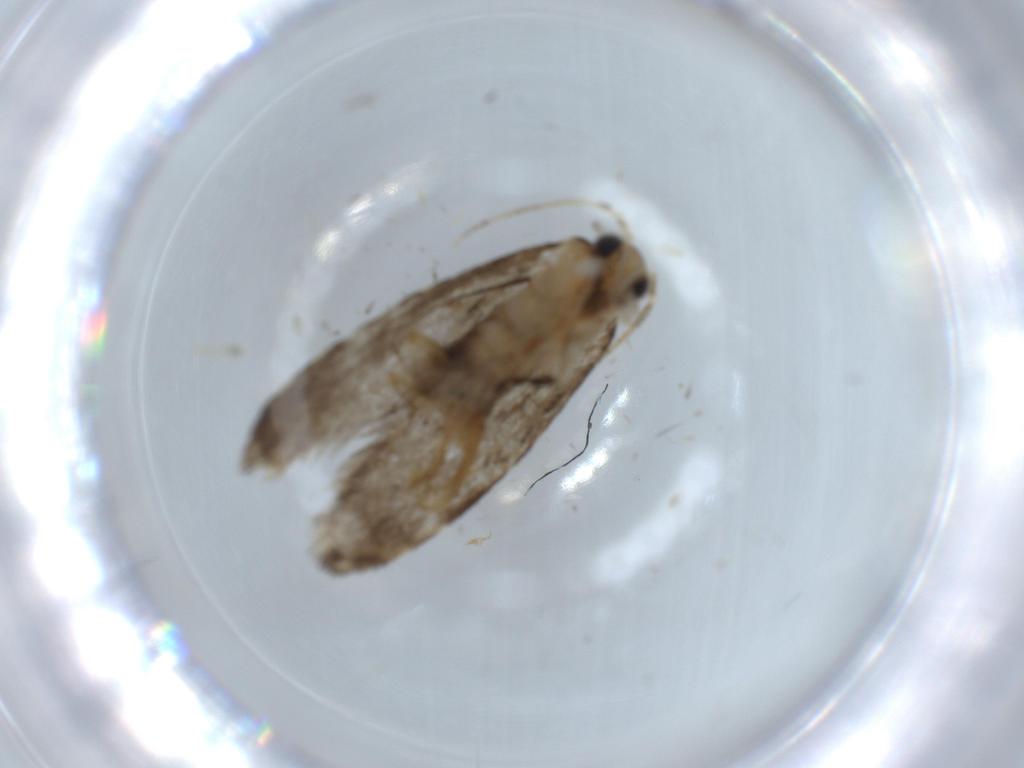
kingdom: Animalia
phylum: Arthropoda
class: Insecta
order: Lepidoptera
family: Tineidae
